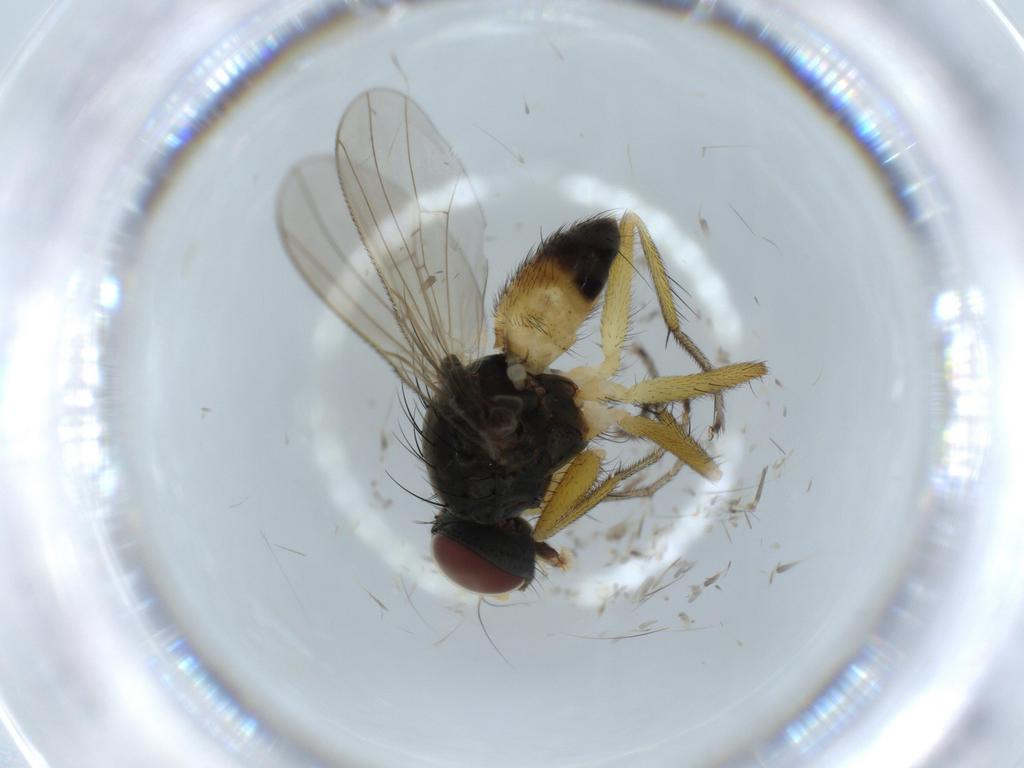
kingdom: Animalia
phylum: Arthropoda
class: Insecta
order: Diptera
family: Muscidae
